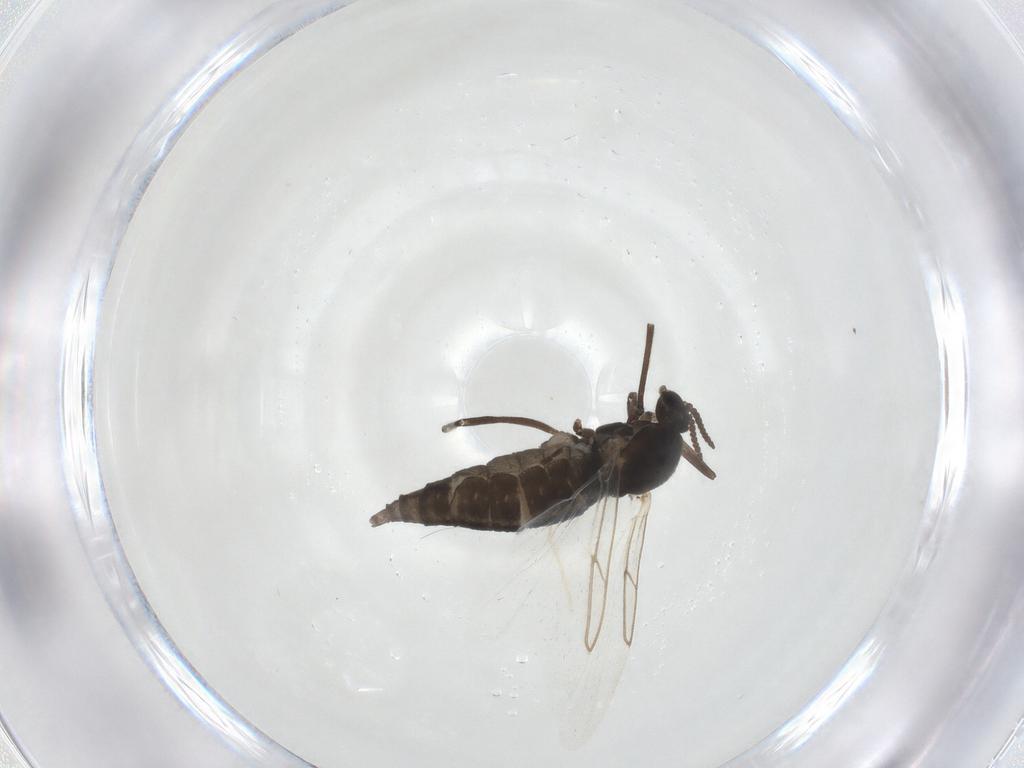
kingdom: Animalia
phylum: Arthropoda
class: Insecta
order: Diptera
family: Cecidomyiidae
